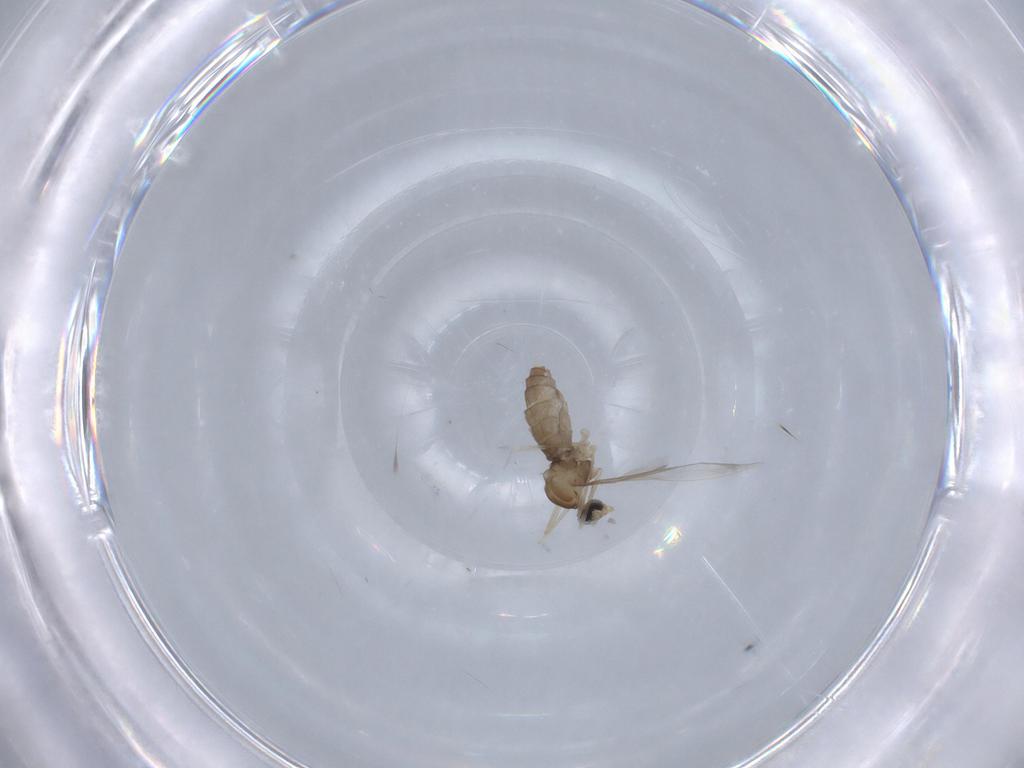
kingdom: Animalia
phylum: Arthropoda
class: Insecta
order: Diptera
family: Cecidomyiidae
